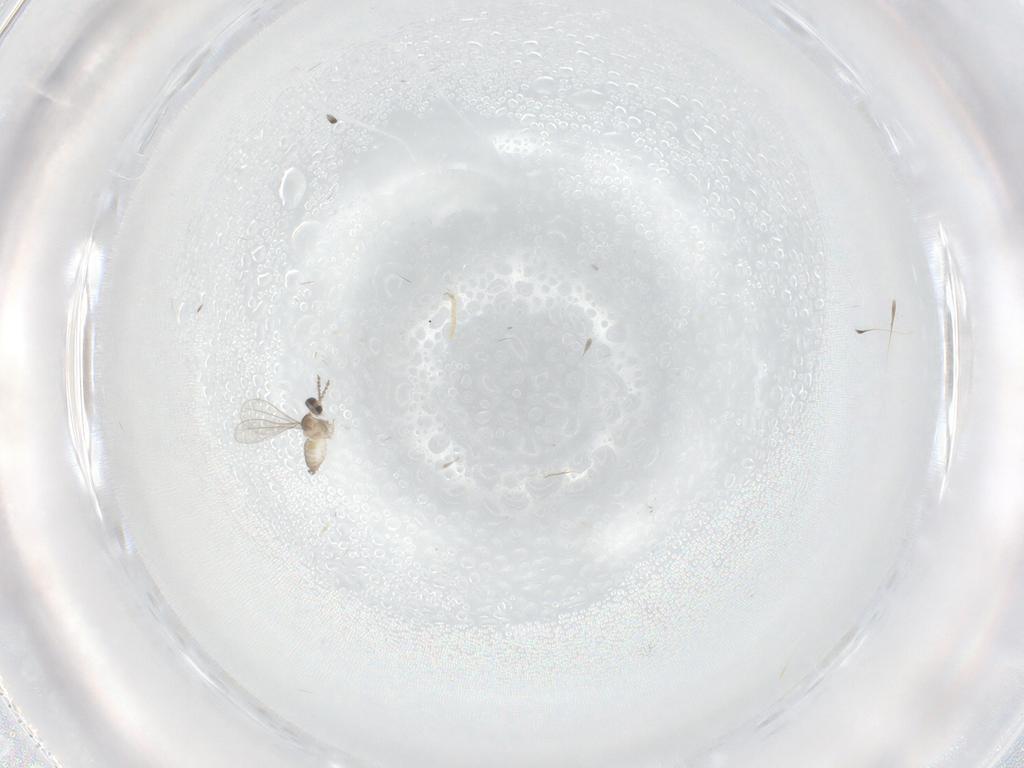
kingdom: Animalia
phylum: Arthropoda
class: Insecta
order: Diptera
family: Cecidomyiidae
